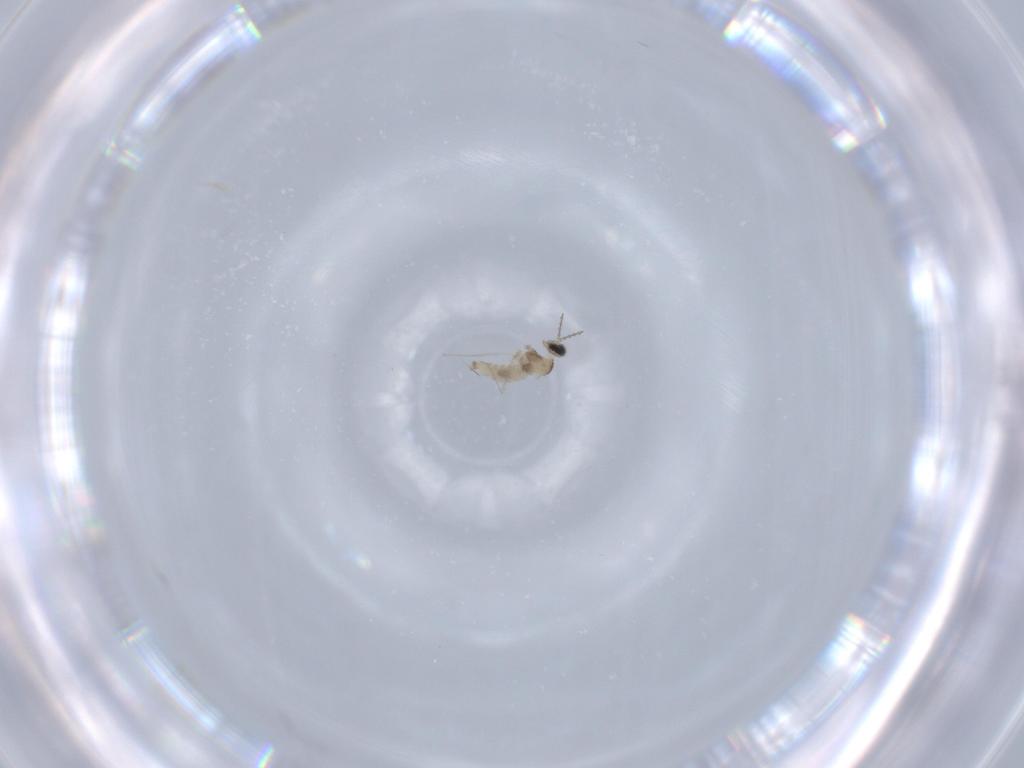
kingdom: Animalia
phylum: Arthropoda
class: Insecta
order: Diptera
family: Cecidomyiidae
